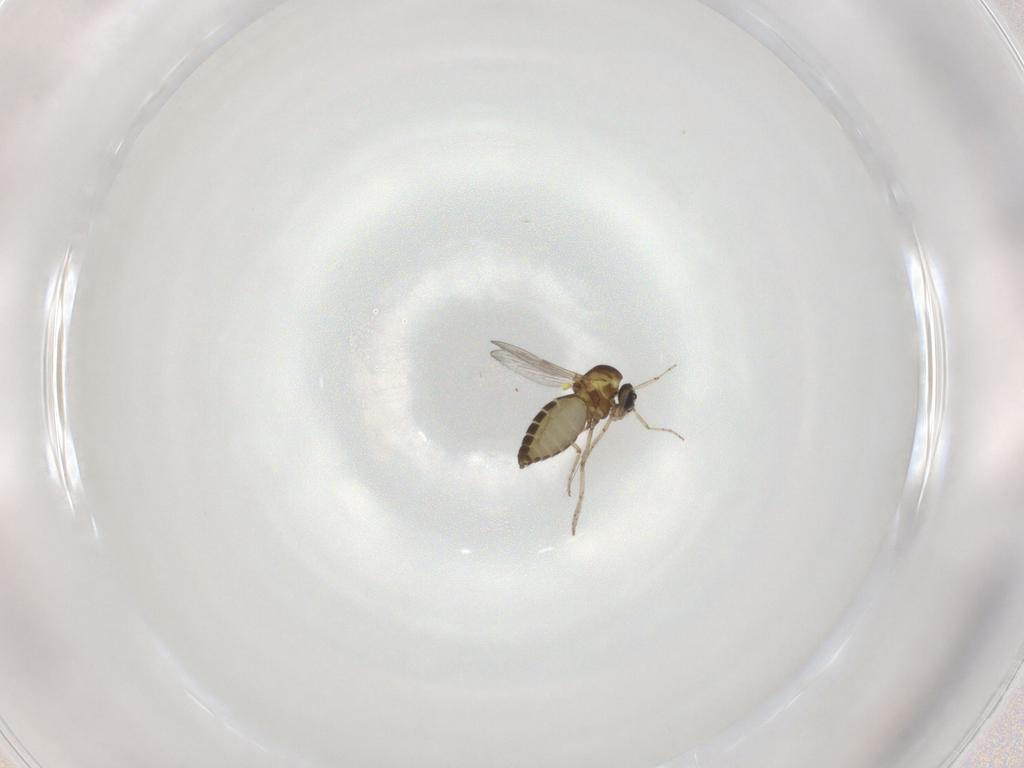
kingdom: Animalia
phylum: Arthropoda
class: Insecta
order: Diptera
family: Ceratopogonidae
